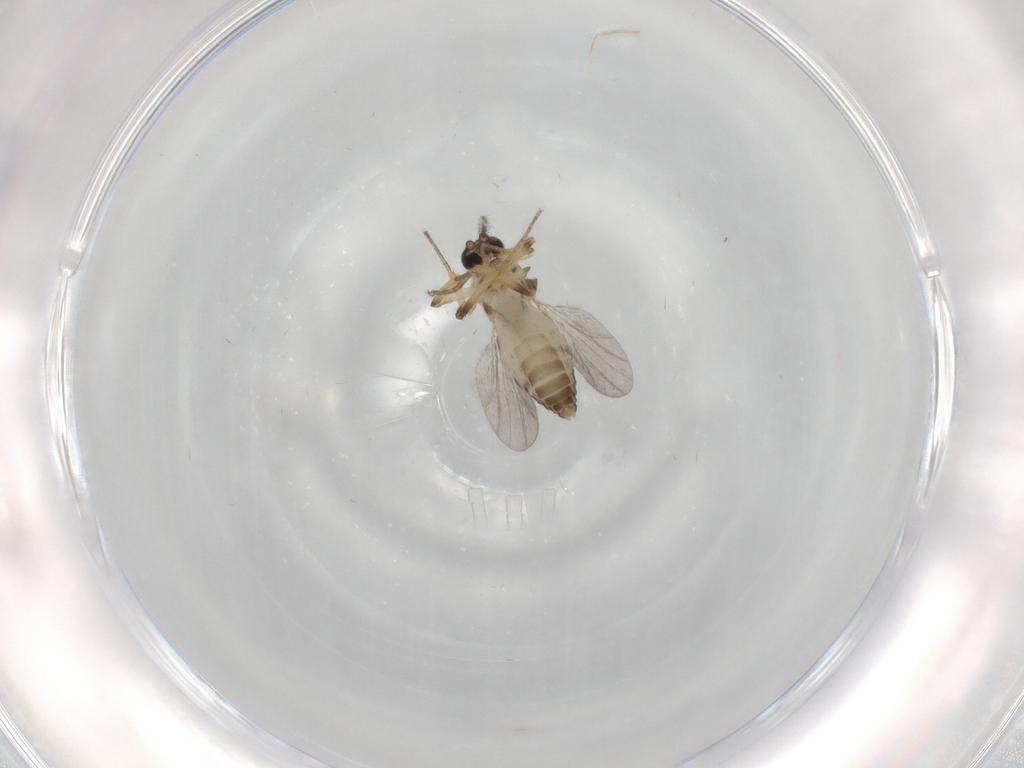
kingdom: Animalia
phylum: Arthropoda
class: Insecta
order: Diptera
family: Ceratopogonidae
